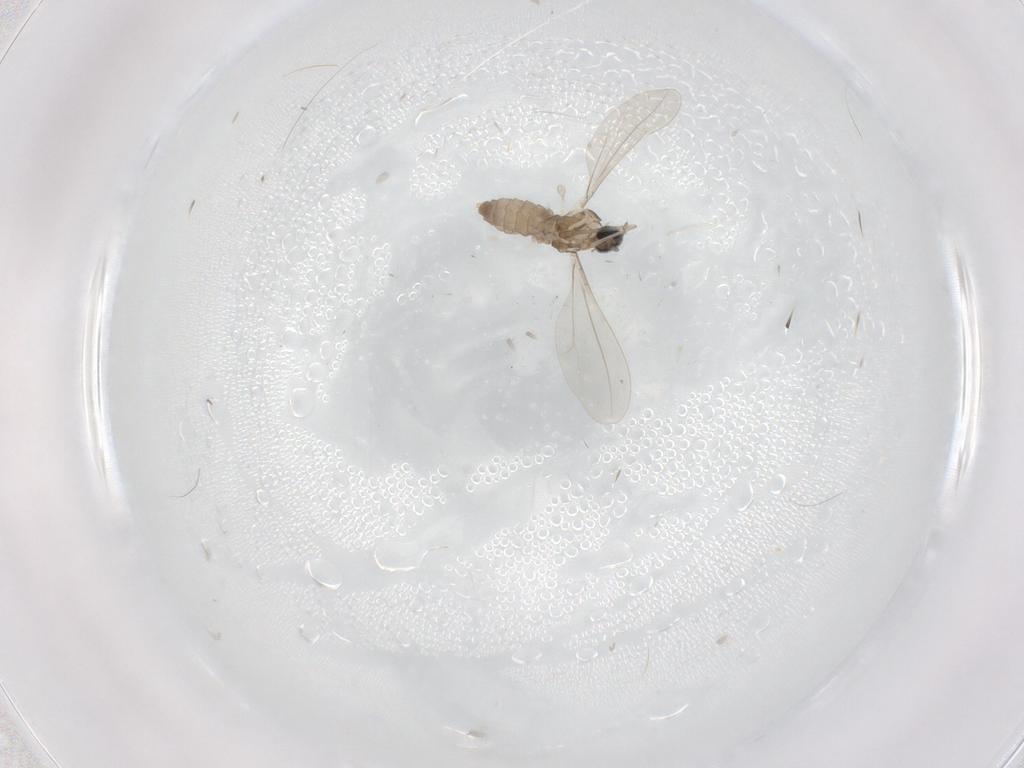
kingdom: Animalia
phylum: Arthropoda
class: Insecta
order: Diptera
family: Cecidomyiidae
